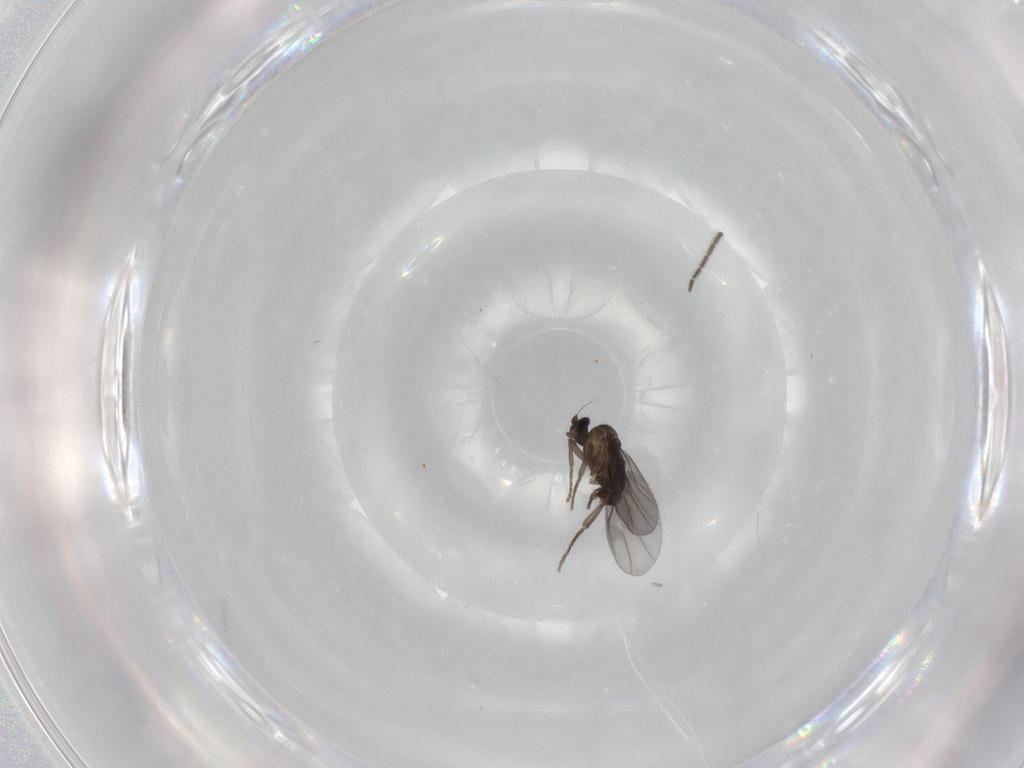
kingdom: Animalia
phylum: Arthropoda
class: Insecta
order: Diptera
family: Sciaridae
